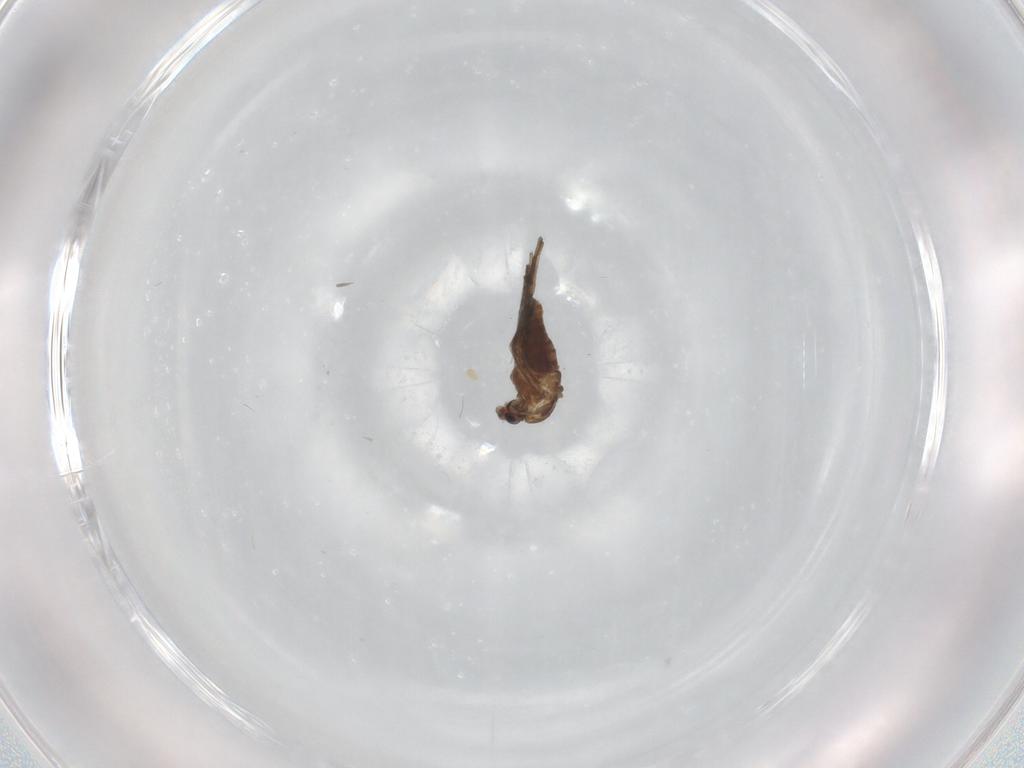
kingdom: Animalia
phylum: Arthropoda
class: Insecta
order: Diptera
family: Chironomidae
